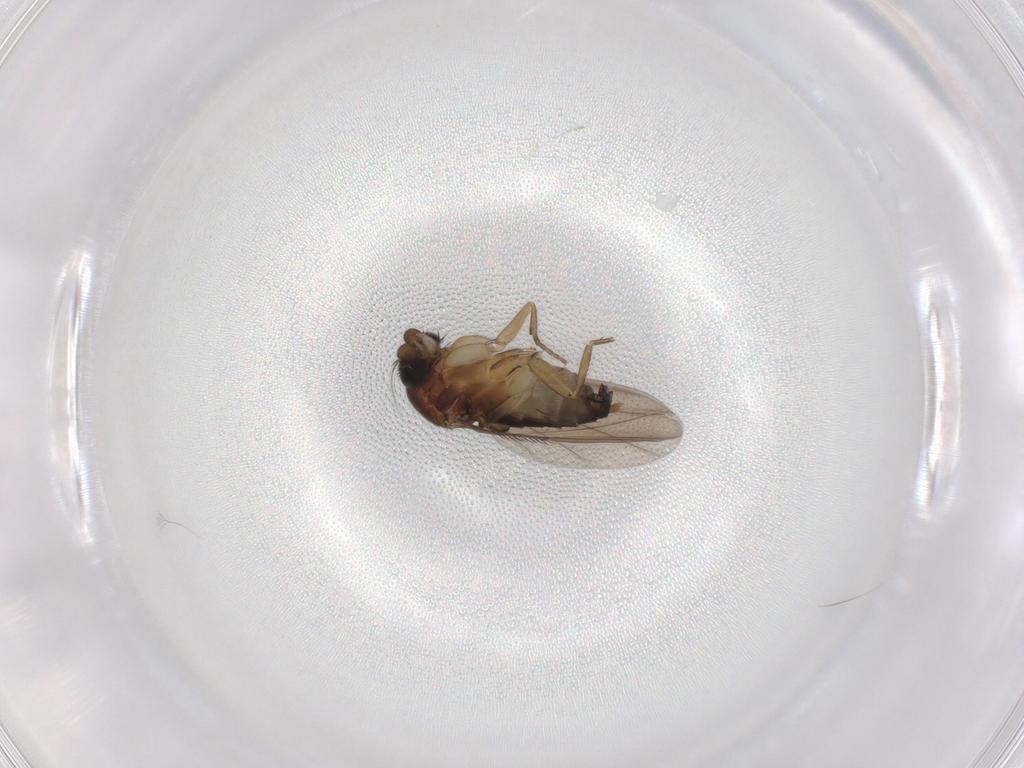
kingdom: Animalia
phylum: Arthropoda
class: Insecta
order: Diptera
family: Phoridae
